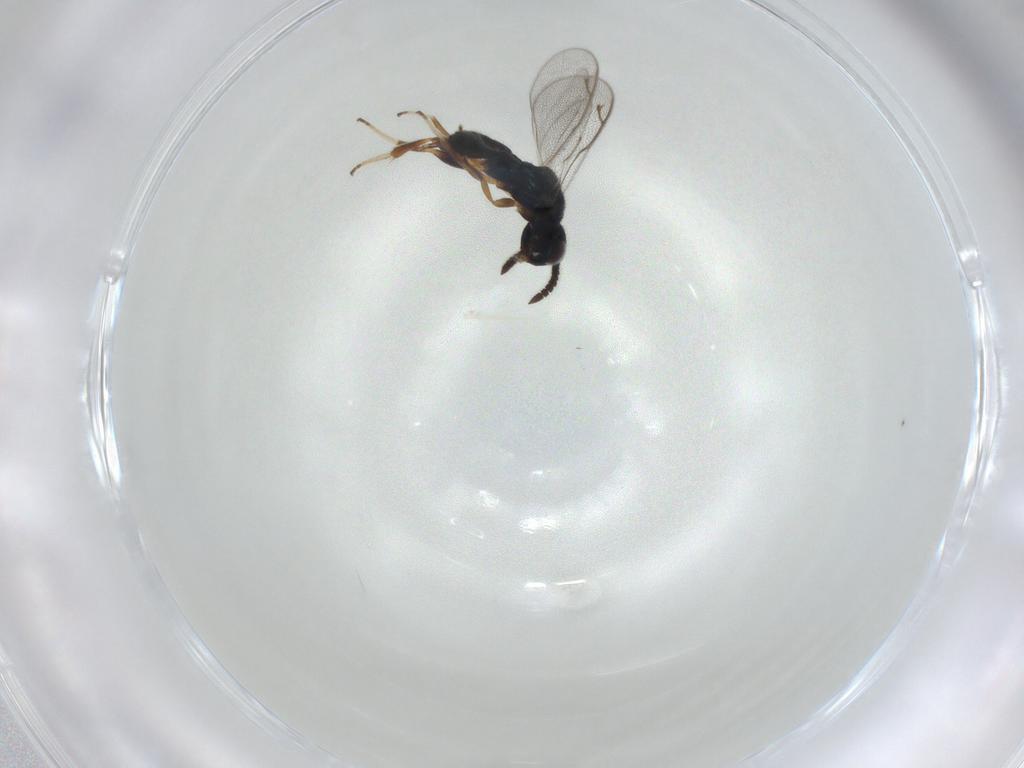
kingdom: Animalia
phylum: Arthropoda
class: Insecta
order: Hymenoptera
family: Cleonyminae
